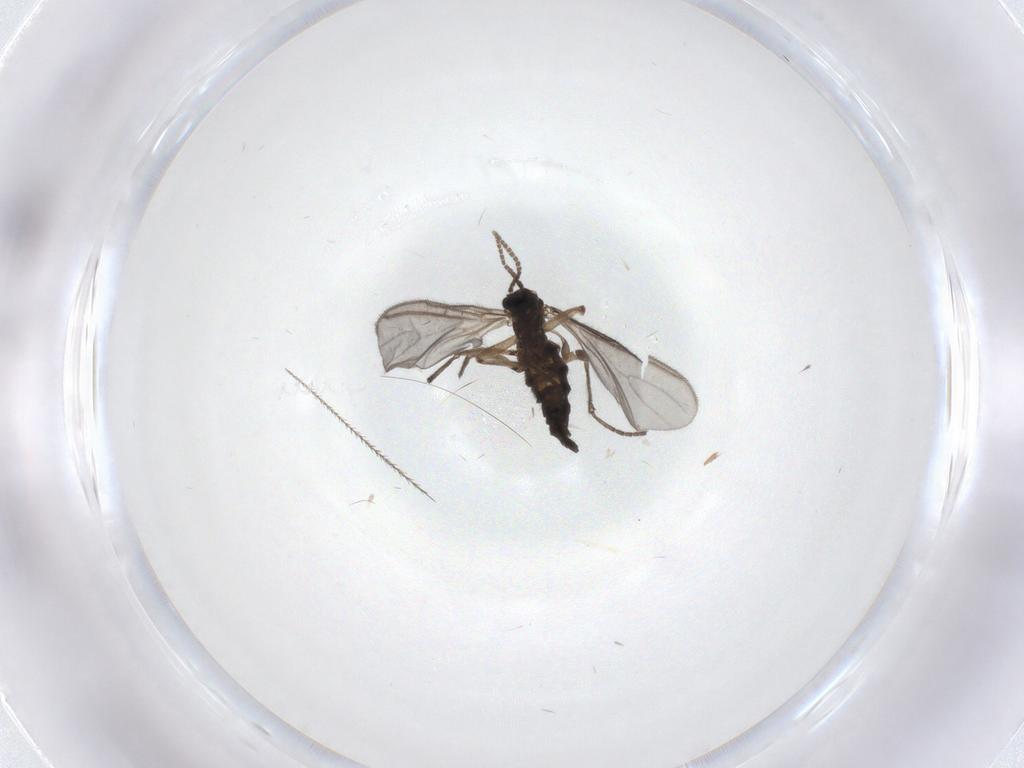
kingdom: Animalia
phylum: Arthropoda
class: Insecta
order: Diptera
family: Sciaridae
